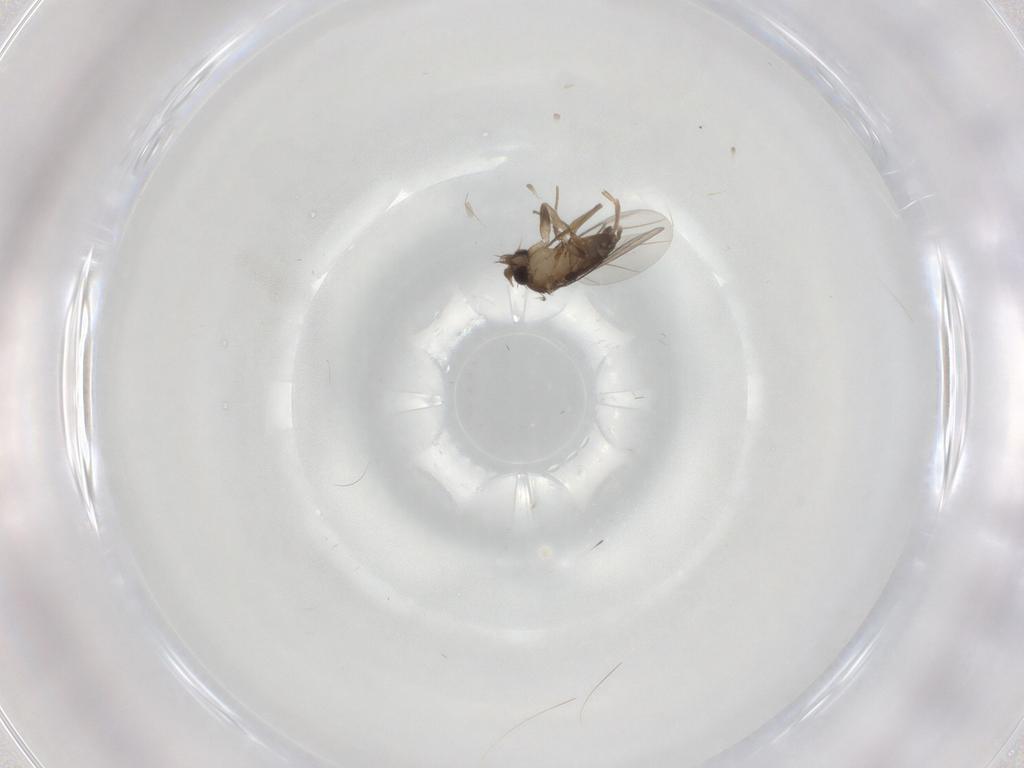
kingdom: Animalia
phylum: Arthropoda
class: Insecta
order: Diptera
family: Phoridae
